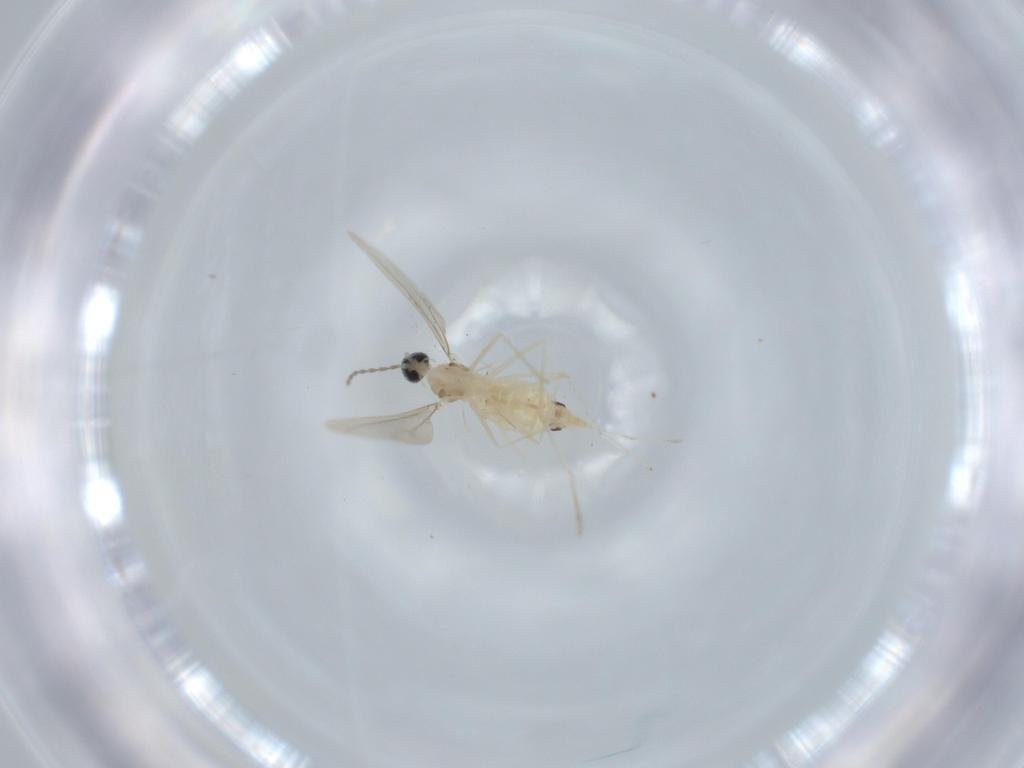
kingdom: Animalia
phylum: Arthropoda
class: Insecta
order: Diptera
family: Cecidomyiidae
